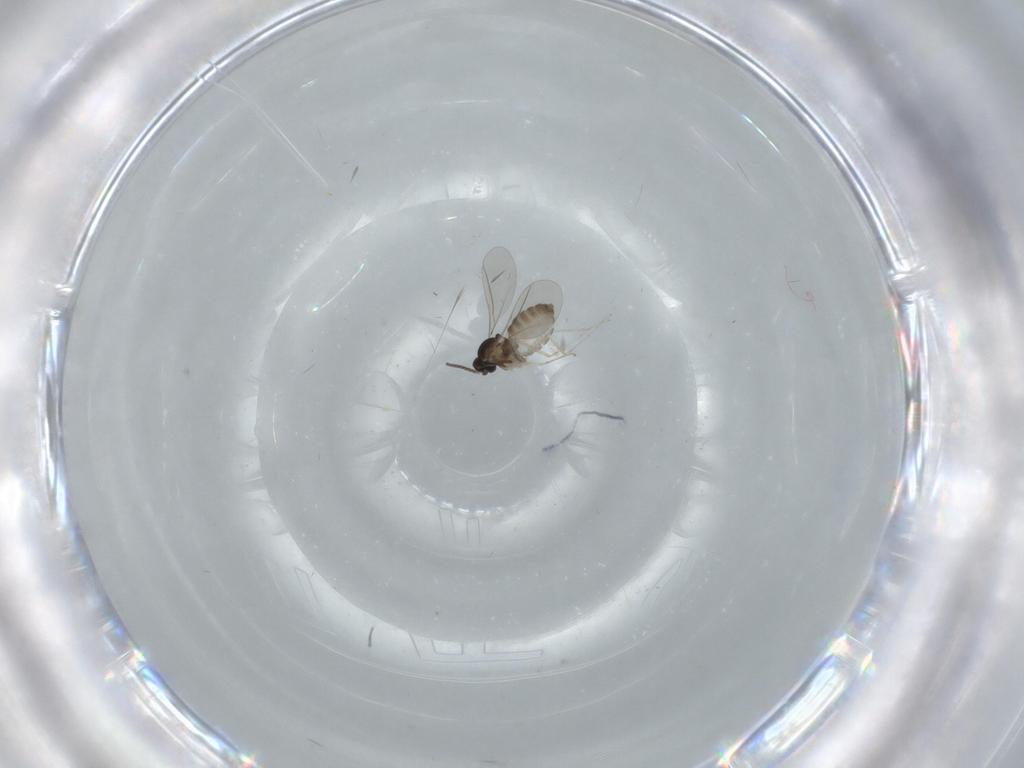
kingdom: Animalia
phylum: Arthropoda
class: Insecta
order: Diptera
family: Cecidomyiidae
